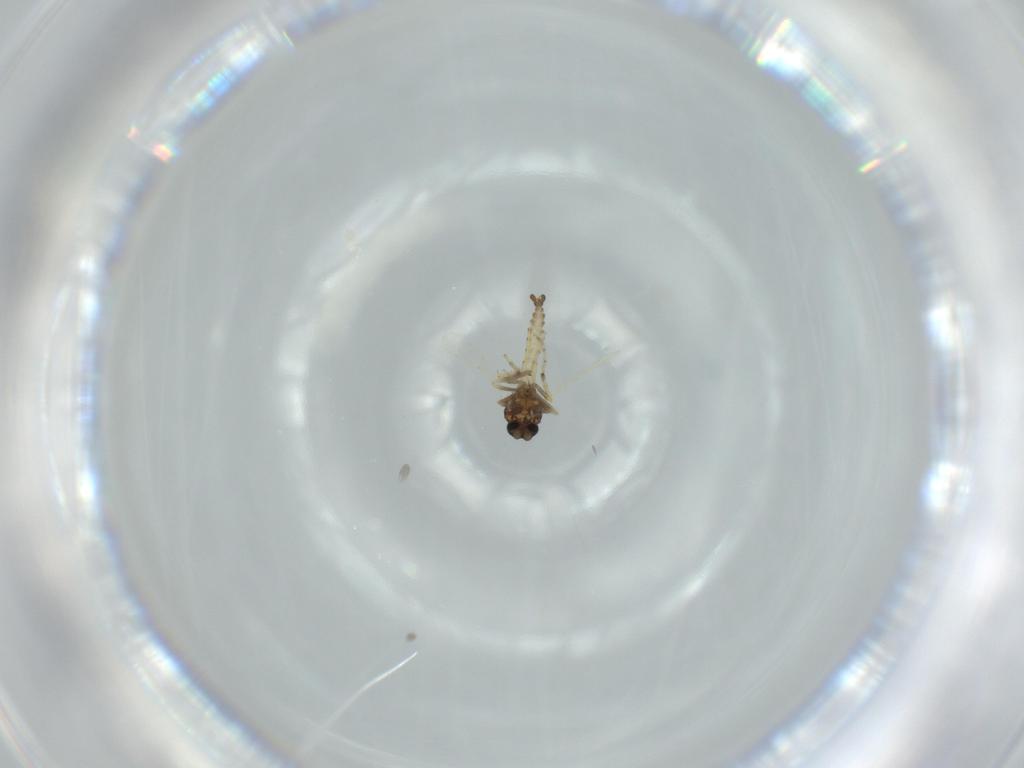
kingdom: Animalia
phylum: Arthropoda
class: Insecta
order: Diptera
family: Ceratopogonidae
